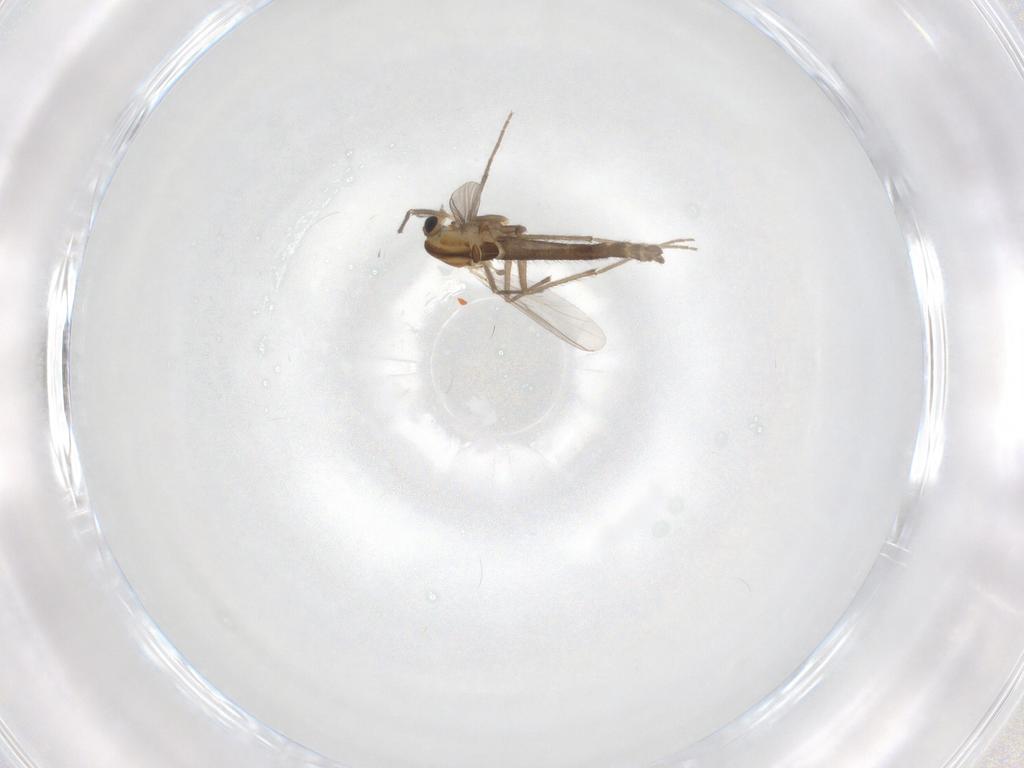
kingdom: Animalia
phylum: Arthropoda
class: Insecta
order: Diptera
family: Chironomidae
